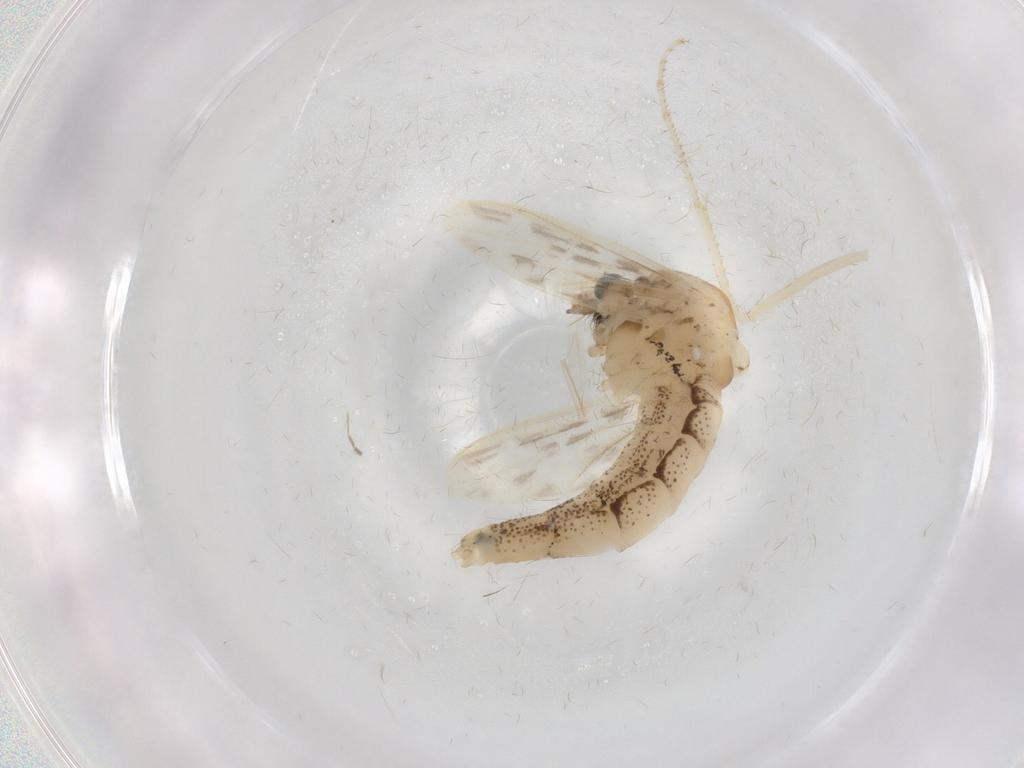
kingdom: Animalia
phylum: Arthropoda
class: Insecta
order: Diptera
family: Chaoboridae
